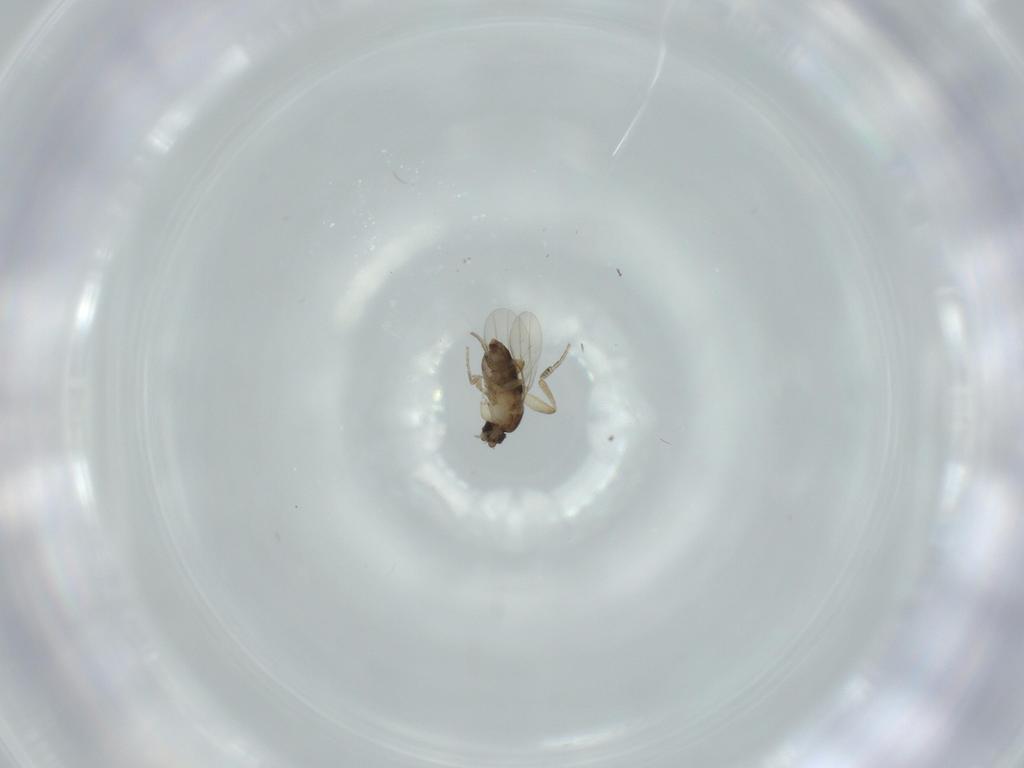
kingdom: Animalia
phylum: Arthropoda
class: Insecta
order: Diptera
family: Phoridae
